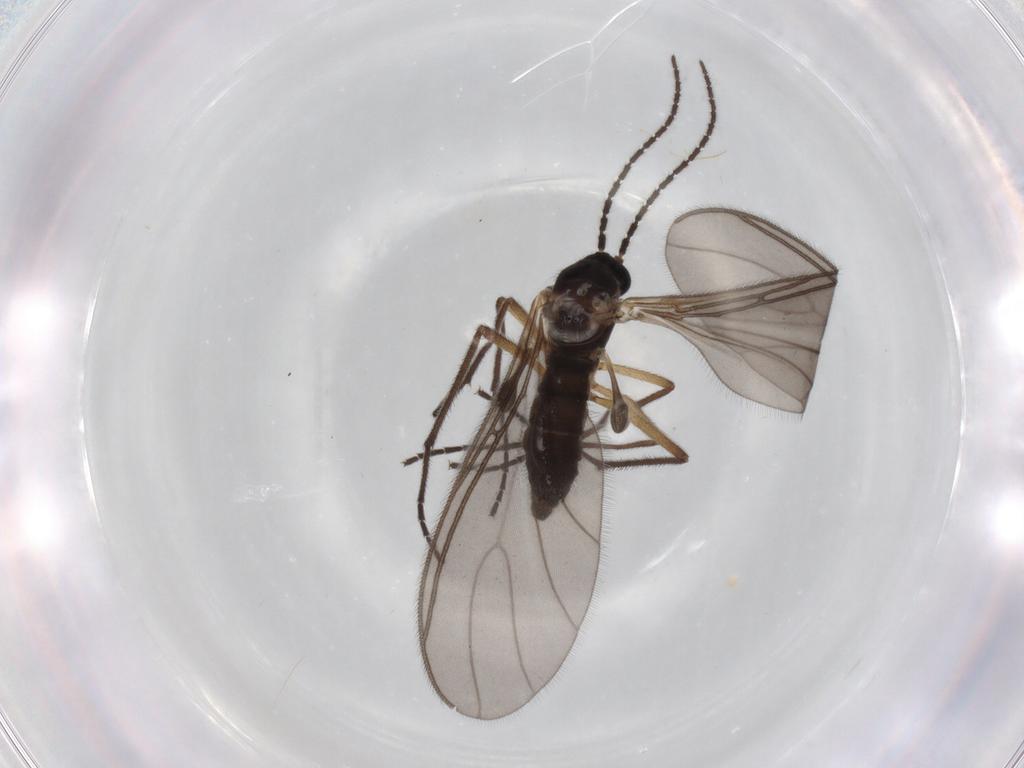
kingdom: Animalia
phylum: Arthropoda
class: Insecta
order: Diptera
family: Sciaridae
